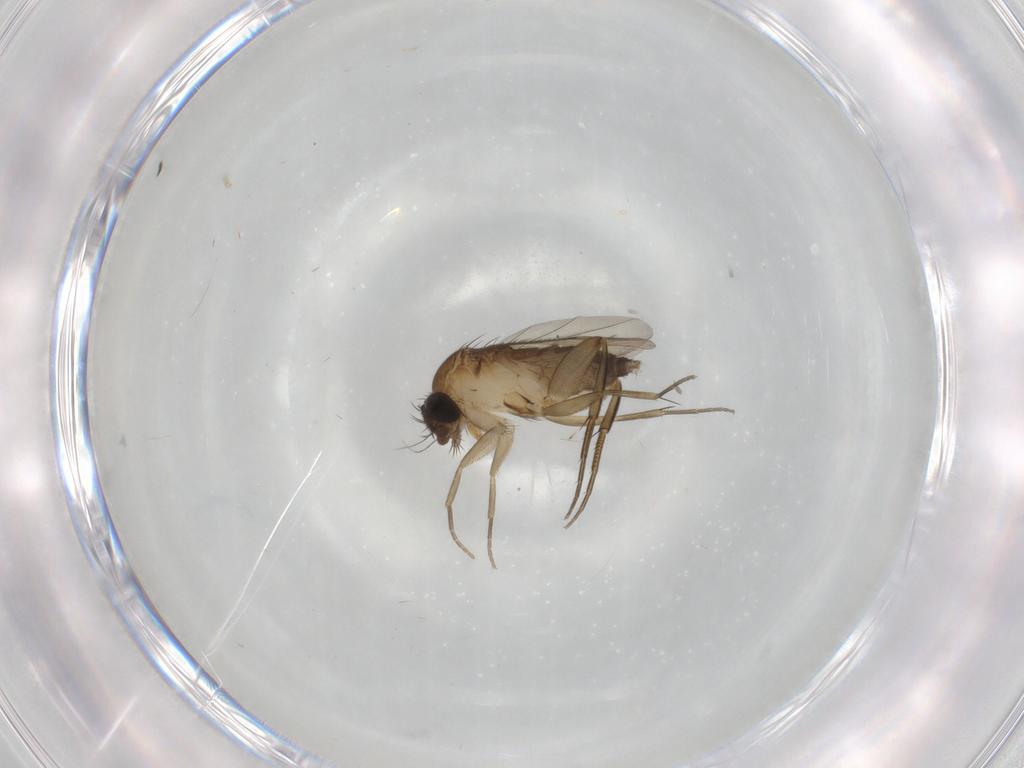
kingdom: Animalia
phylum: Arthropoda
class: Insecta
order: Diptera
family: Phoridae
